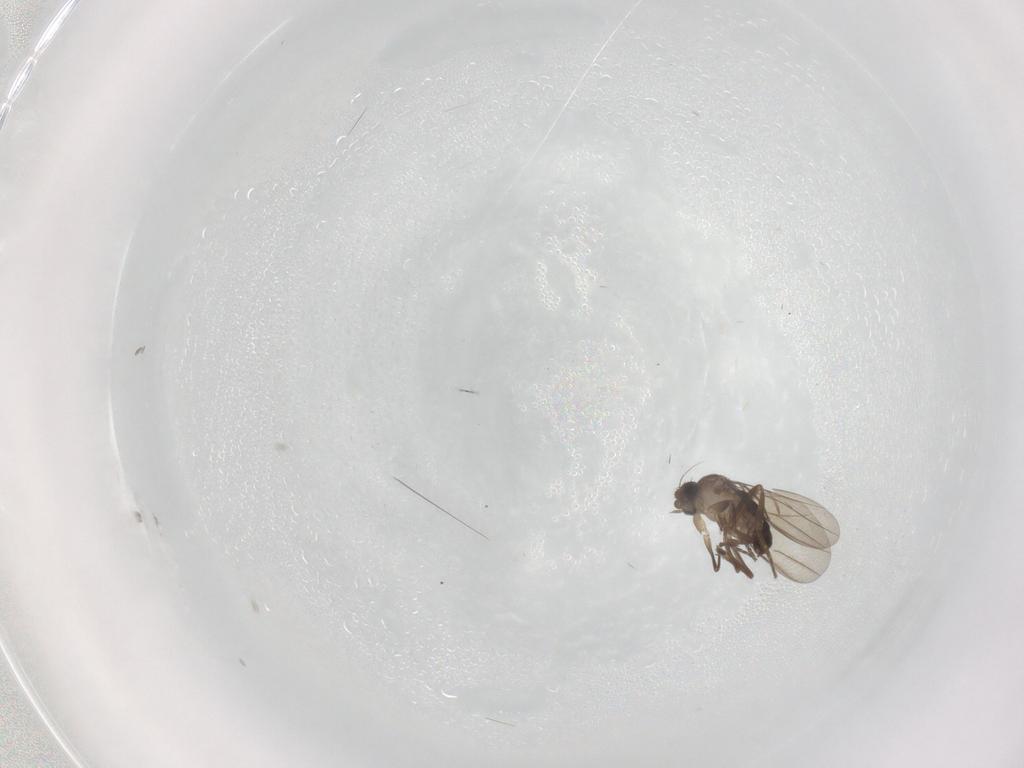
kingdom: Animalia
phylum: Arthropoda
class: Insecta
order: Diptera
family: Phoridae
